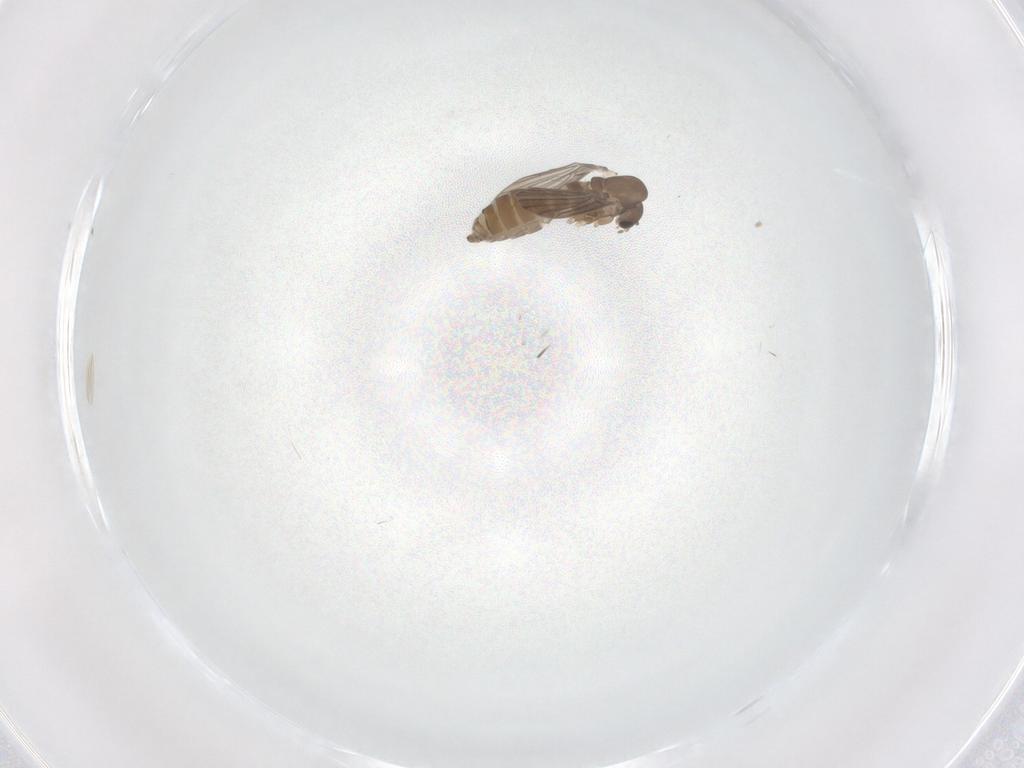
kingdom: Animalia
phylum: Arthropoda
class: Insecta
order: Diptera
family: Psychodidae
